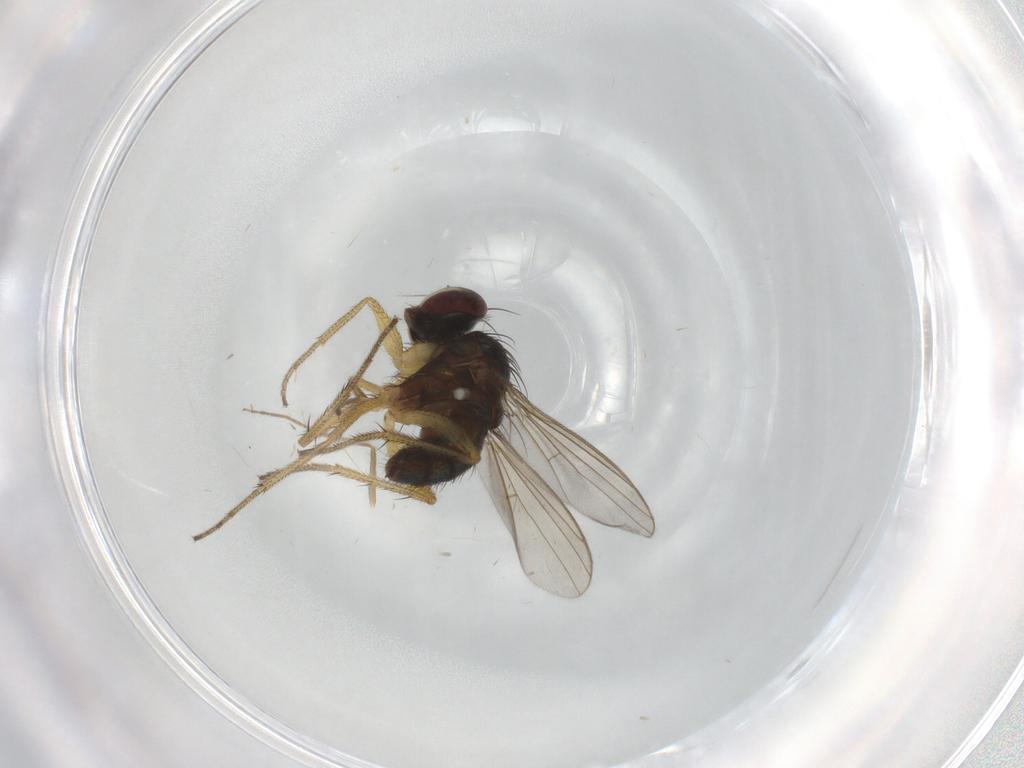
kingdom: Animalia
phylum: Arthropoda
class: Insecta
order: Diptera
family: Dolichopodidae
